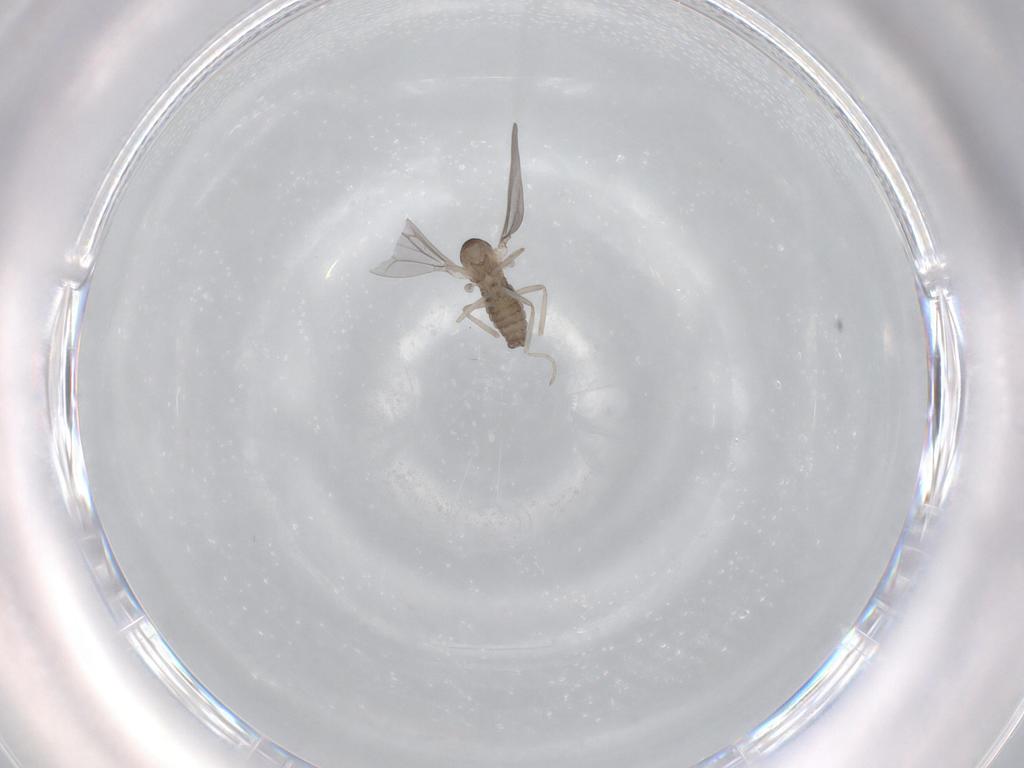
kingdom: Animalia
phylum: Arthropoda
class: Insecta
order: Diptera
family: Cecidomyiidae
